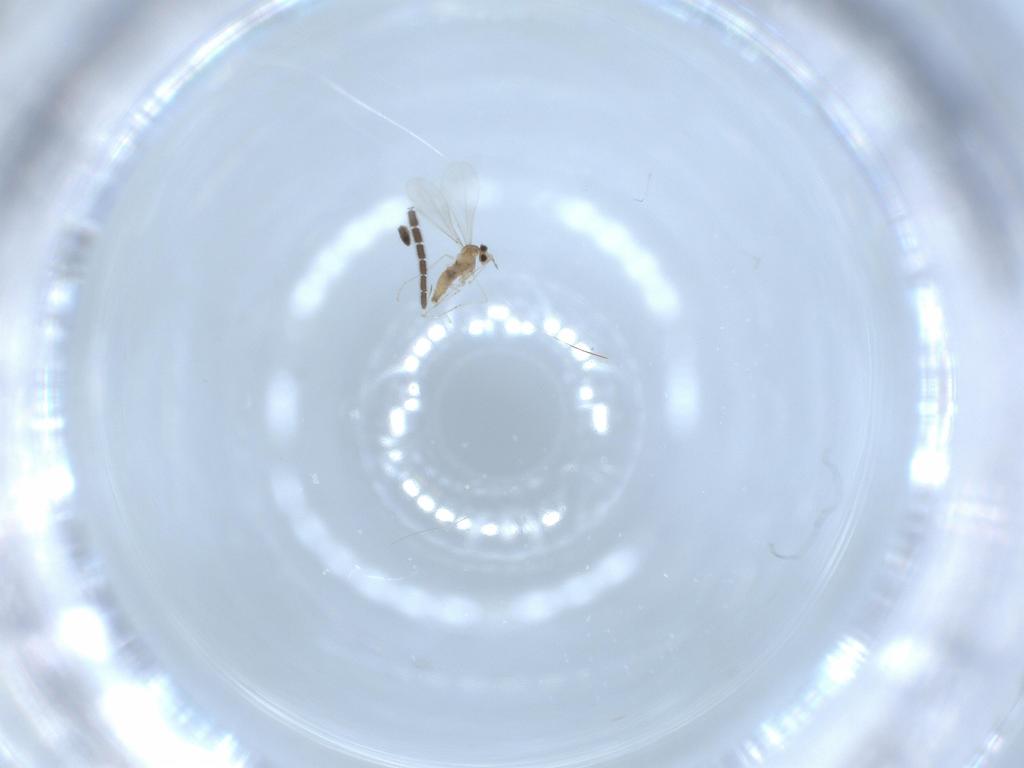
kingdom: Animalia
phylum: Arthropoda
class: Insecta
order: Diptera
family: Cecidomyiidae
